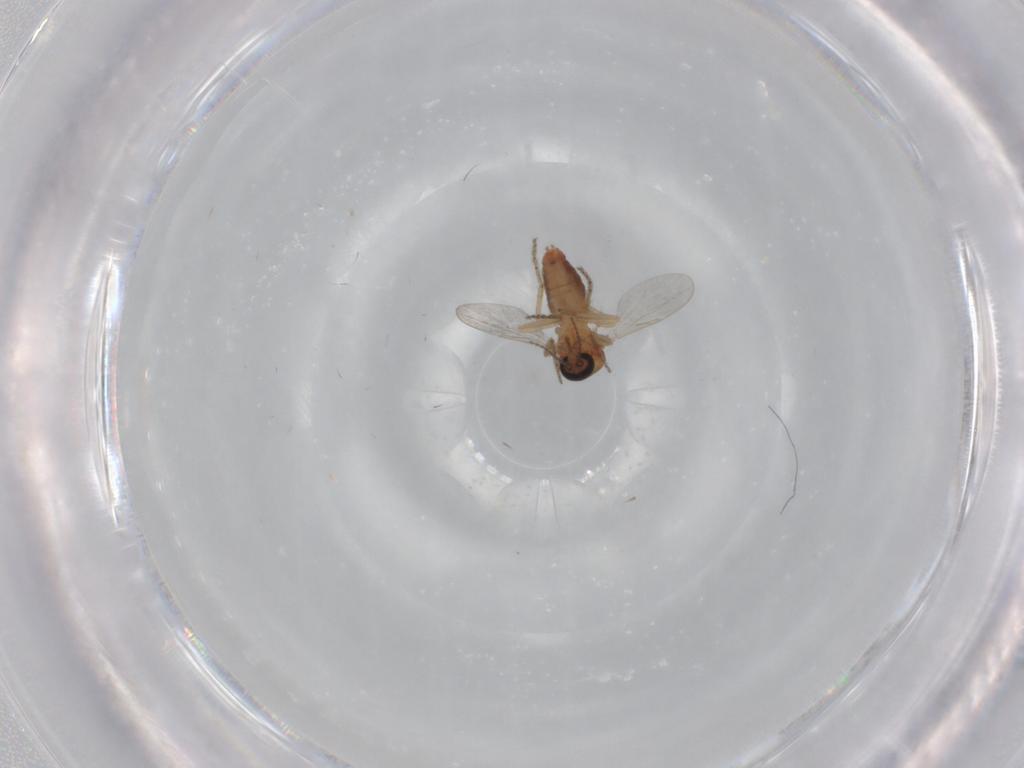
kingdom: Animalia
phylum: Arthropoda
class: Insecta
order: Diptera
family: Ceratopogonidae
